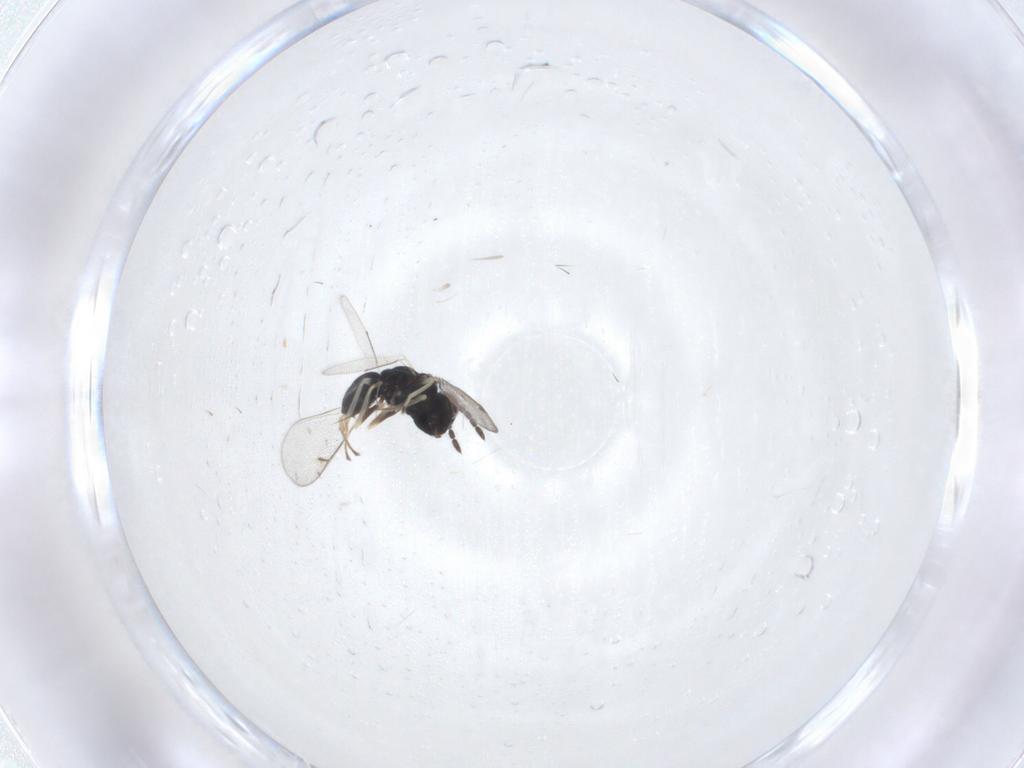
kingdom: Animalia
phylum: Arthropoda
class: Insecta
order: Hymenoptera
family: Eulophidae
